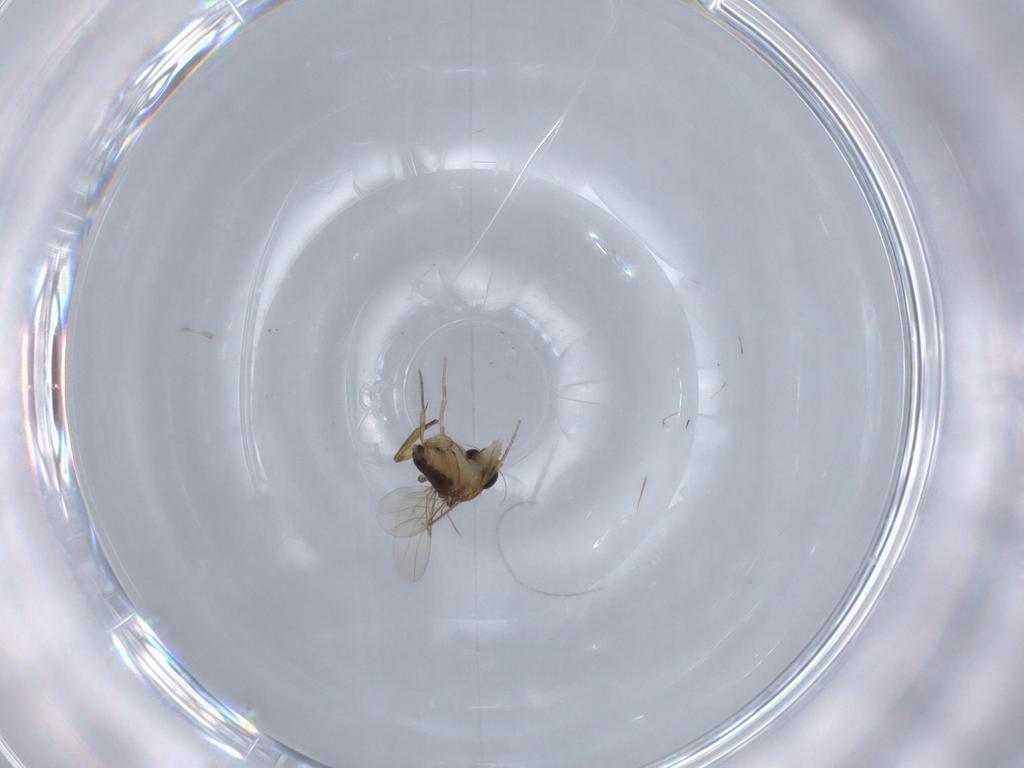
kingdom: Animalia
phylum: Arthropoda
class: Insecta
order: Diptera
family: Phoridae
